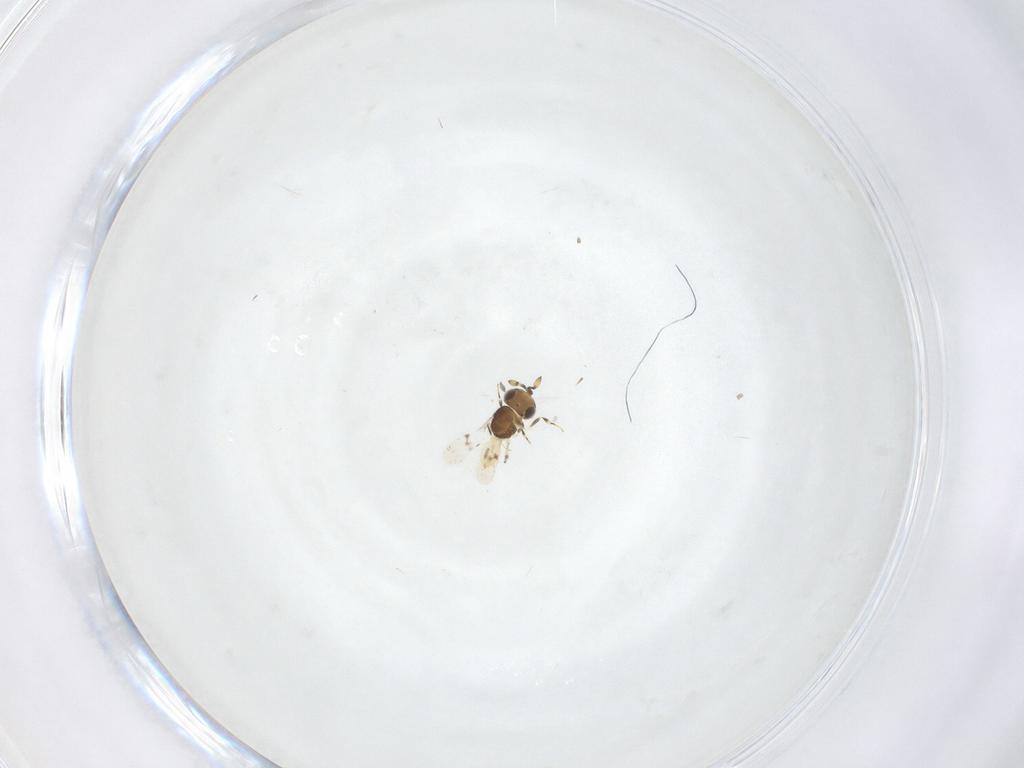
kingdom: Animalia
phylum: Arthropoda
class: Insecta
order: Hymenoptera
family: Scelionidae
